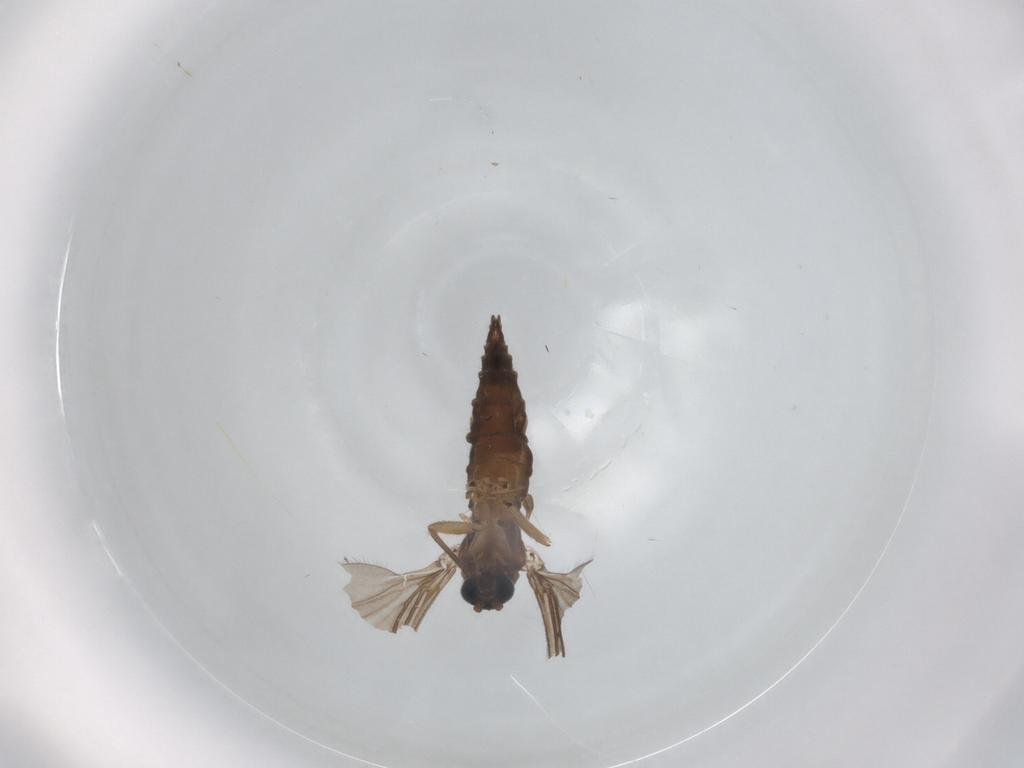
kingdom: Animalia
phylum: Arthropoda
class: Insecta
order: Diptera
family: Sciaridae
